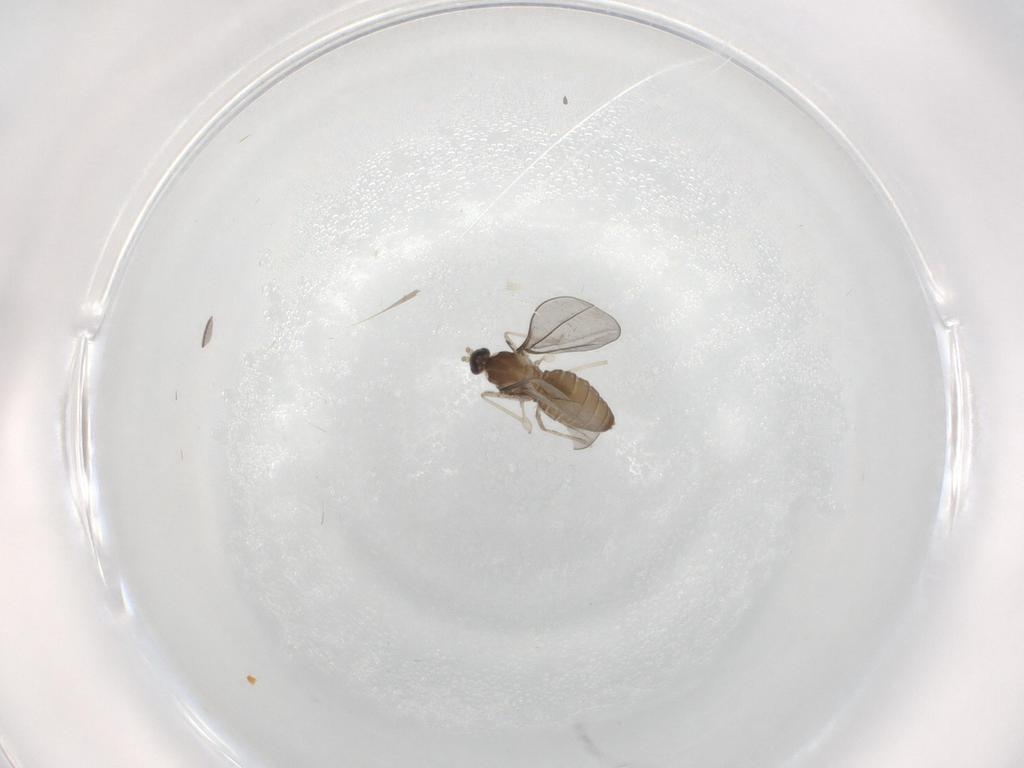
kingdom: Animalia
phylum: Arthropoda
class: Insecta
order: Diptera
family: Cecidomyiidae
